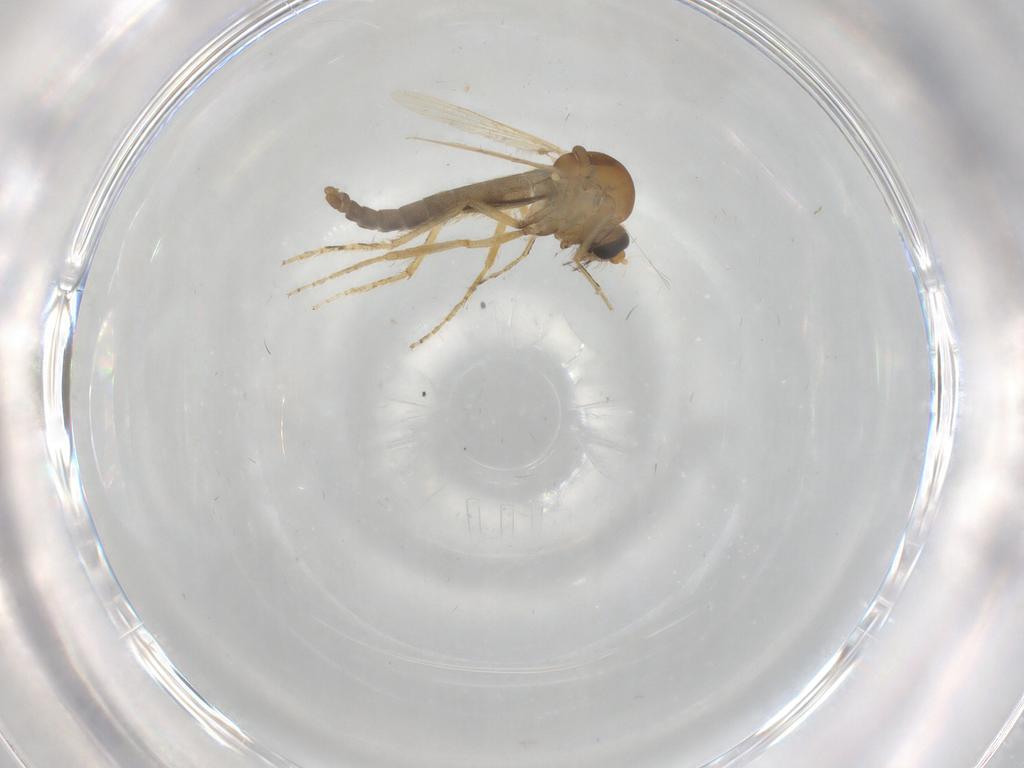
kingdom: Animalia
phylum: Arthropoda
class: Insecta
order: Diptera
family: Ceratopogonidae
